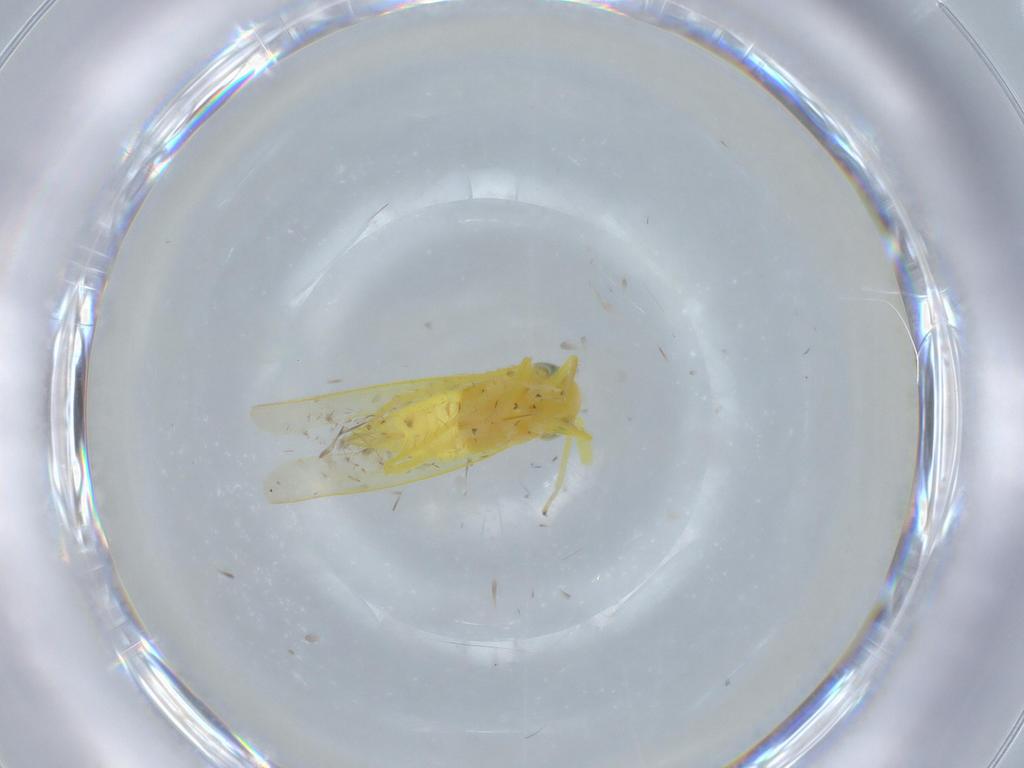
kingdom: Animalia
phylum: Arthropoda
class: Insecta
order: Hemiptera
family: Cicadellidae
